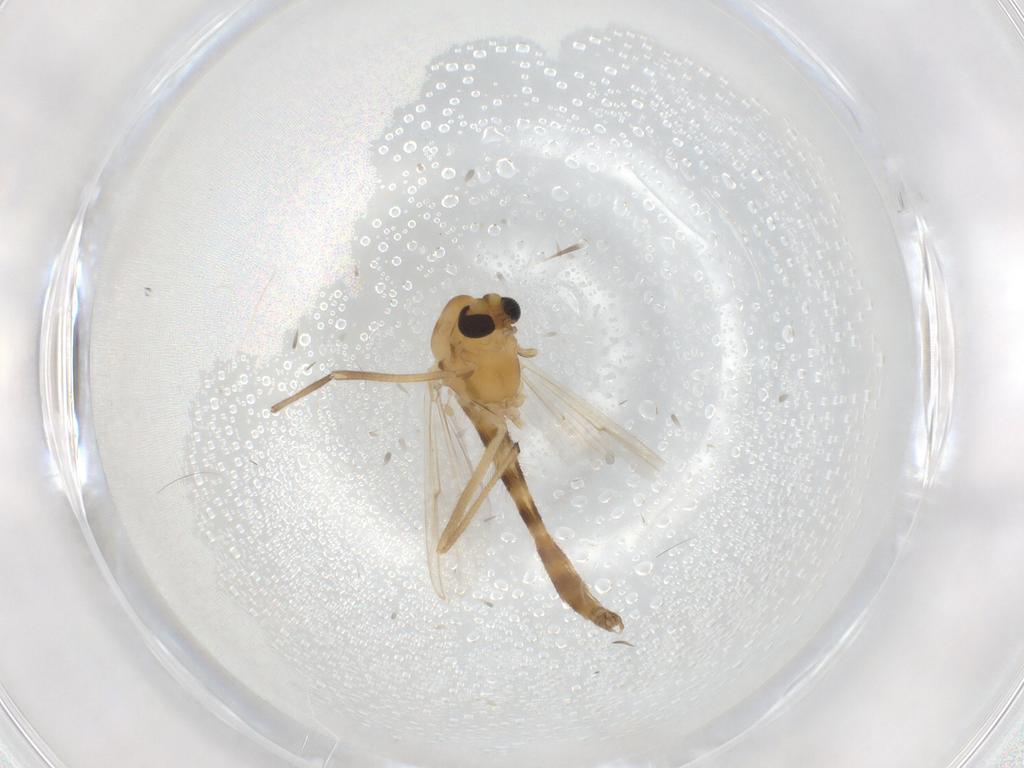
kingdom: Animalia
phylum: Arthropoda
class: Insecta
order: Diptera
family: Chironomidae
